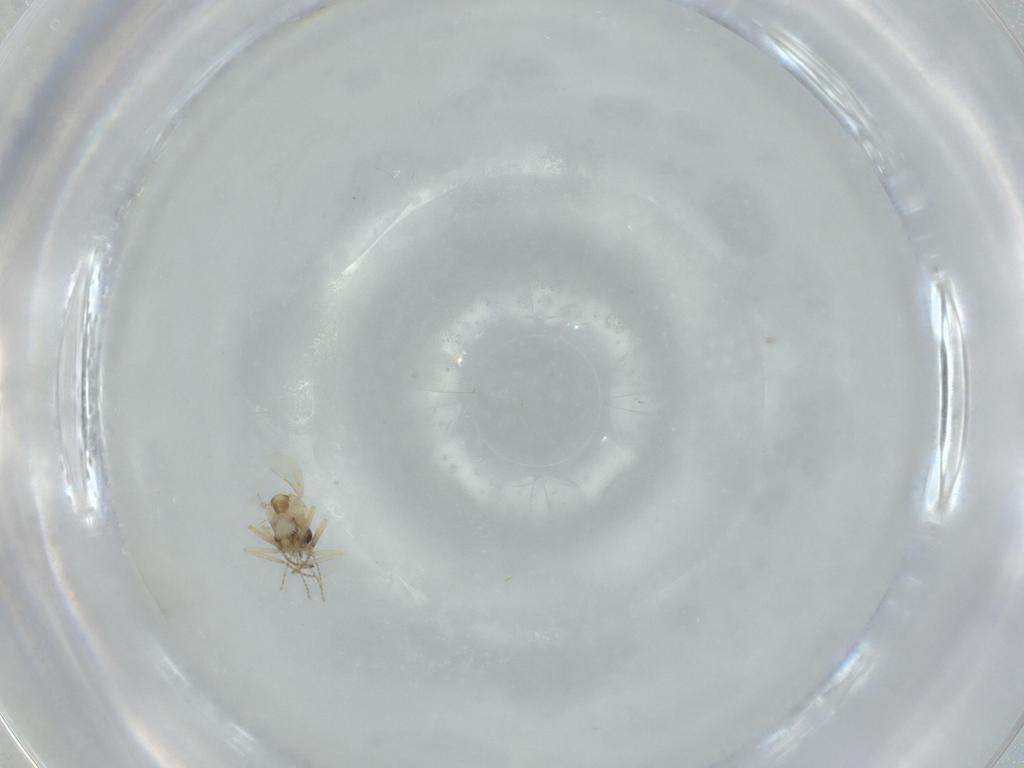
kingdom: Animalia
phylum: Arthropoda
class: Insecta
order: Diptera
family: Ceratopogonidae
